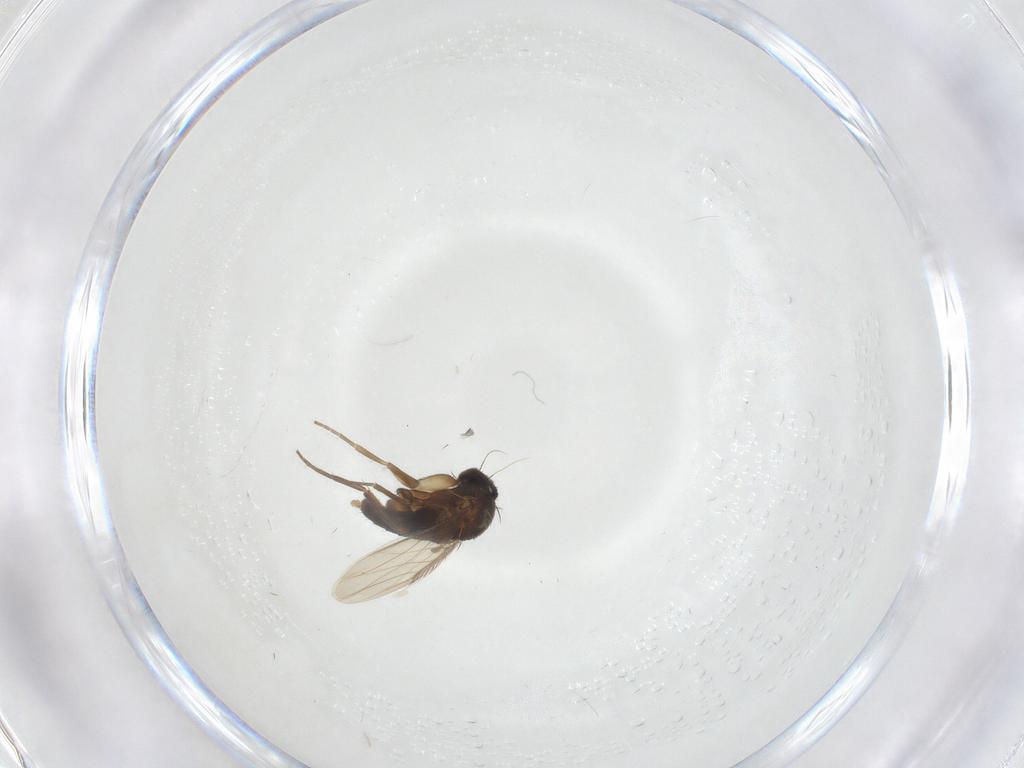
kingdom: Animalia
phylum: Arthropoda
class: Insecta
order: Diptera
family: Phoridae
